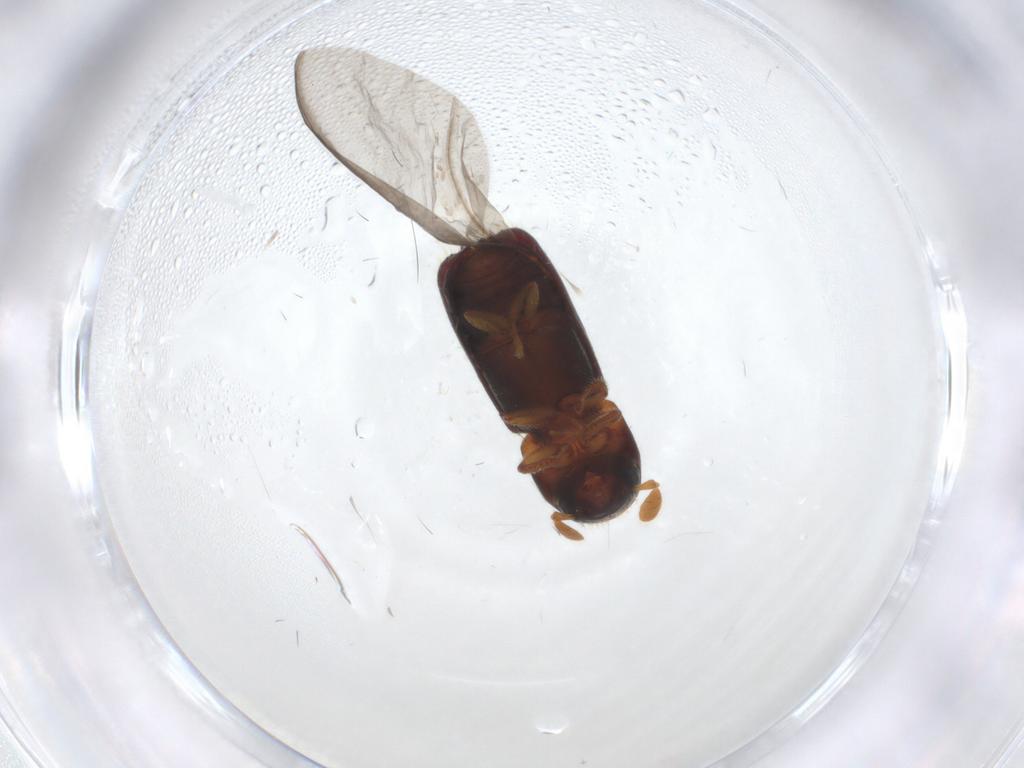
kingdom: Animalia
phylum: Arthropoda
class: Insecta
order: Coleoptera
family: Curculionidae
